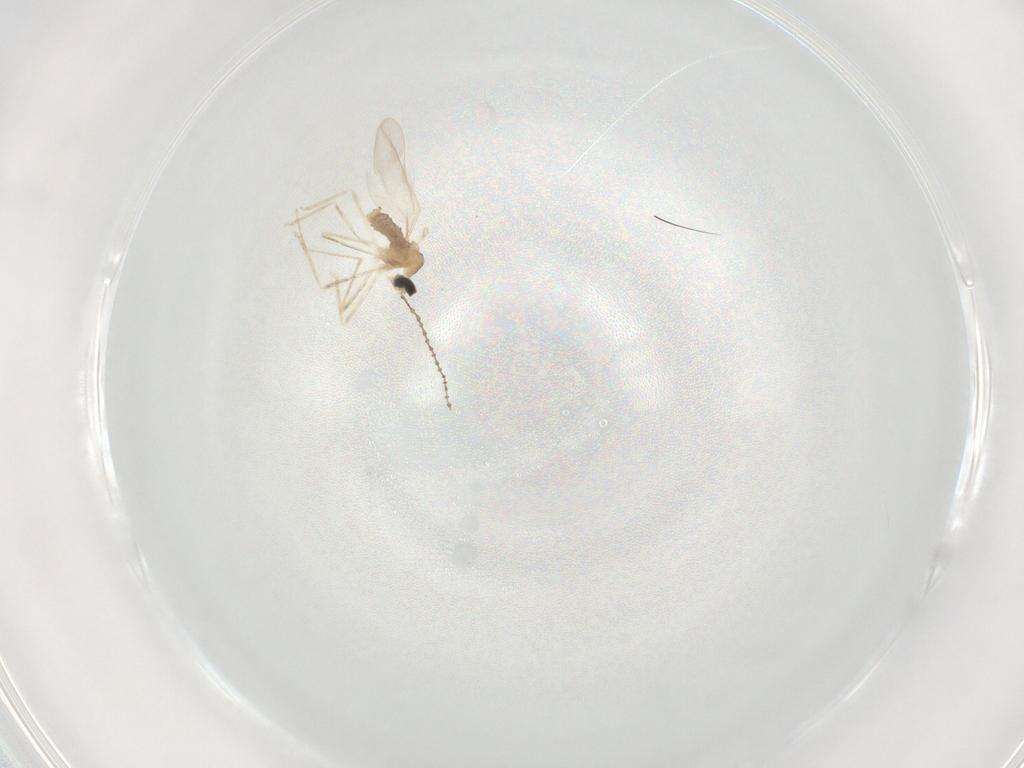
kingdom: Animalia
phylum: Arthropoda
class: Insecta
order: Diptera
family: Cecidomyiidae
